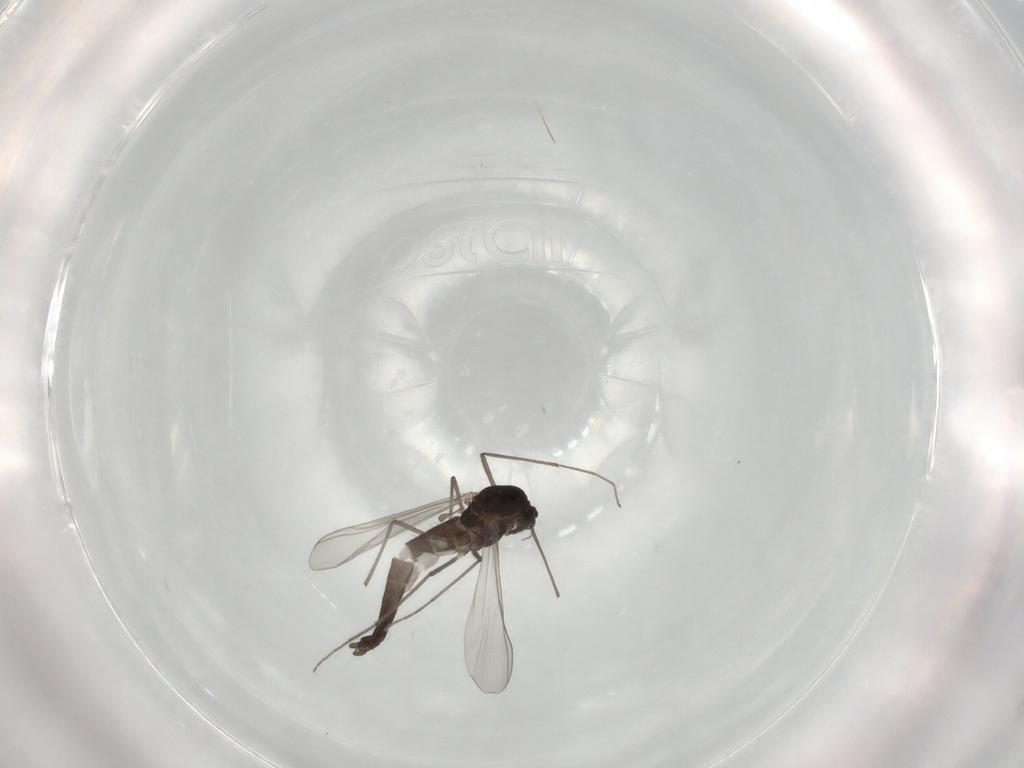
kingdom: Animalia
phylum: Arthropoda
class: Insecta
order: Diptera
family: Chironomidae
